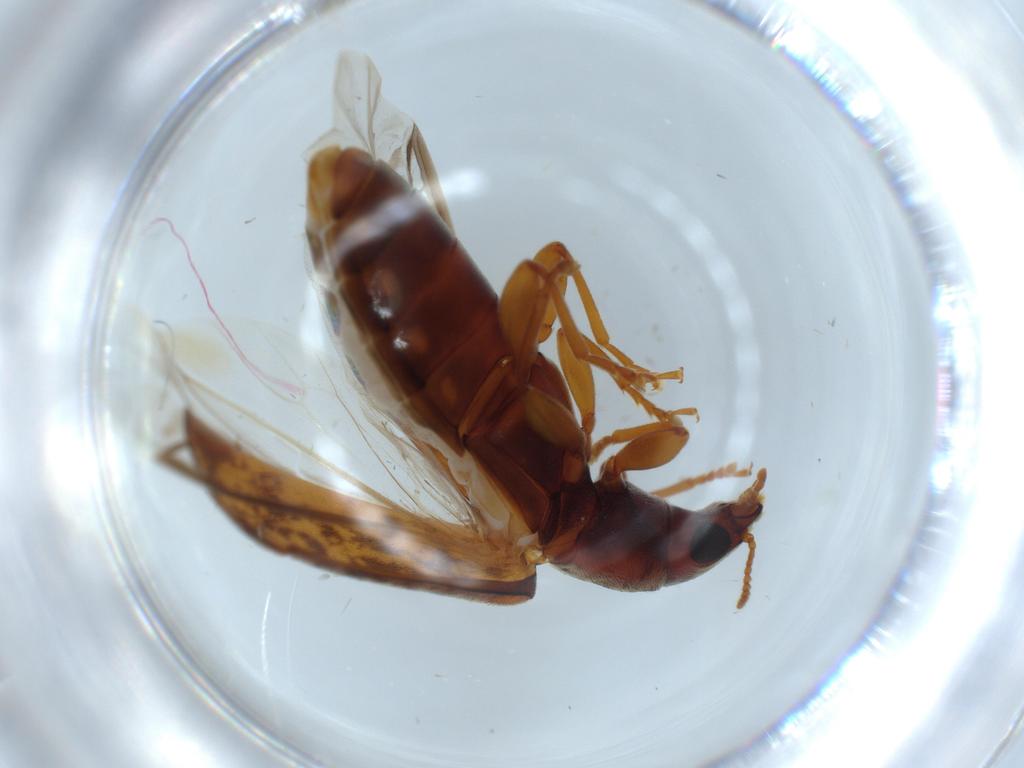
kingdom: Animalia
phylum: Arthropoda
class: Insecta
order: Coleoptera
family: Mycteridae
